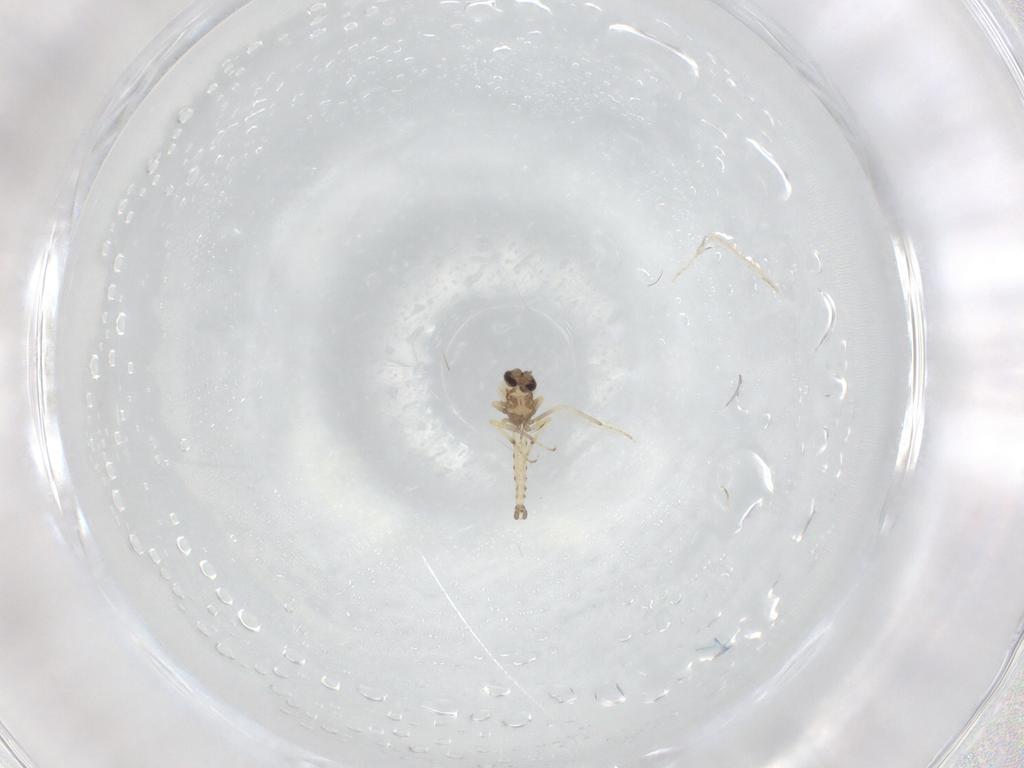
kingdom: Animalia
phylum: Arthropoda
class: Insecta
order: Diptera
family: Ceratopogonidae
